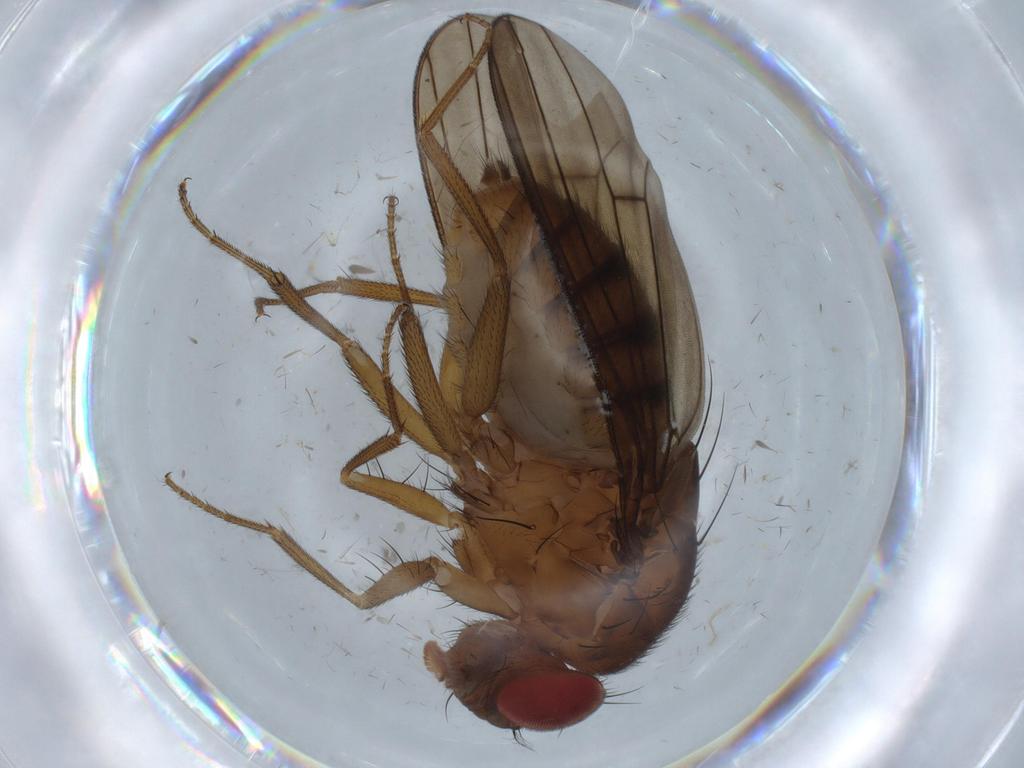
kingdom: Animalia
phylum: Arthropoda
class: Insecta
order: Diptera
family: Drosophilidae
